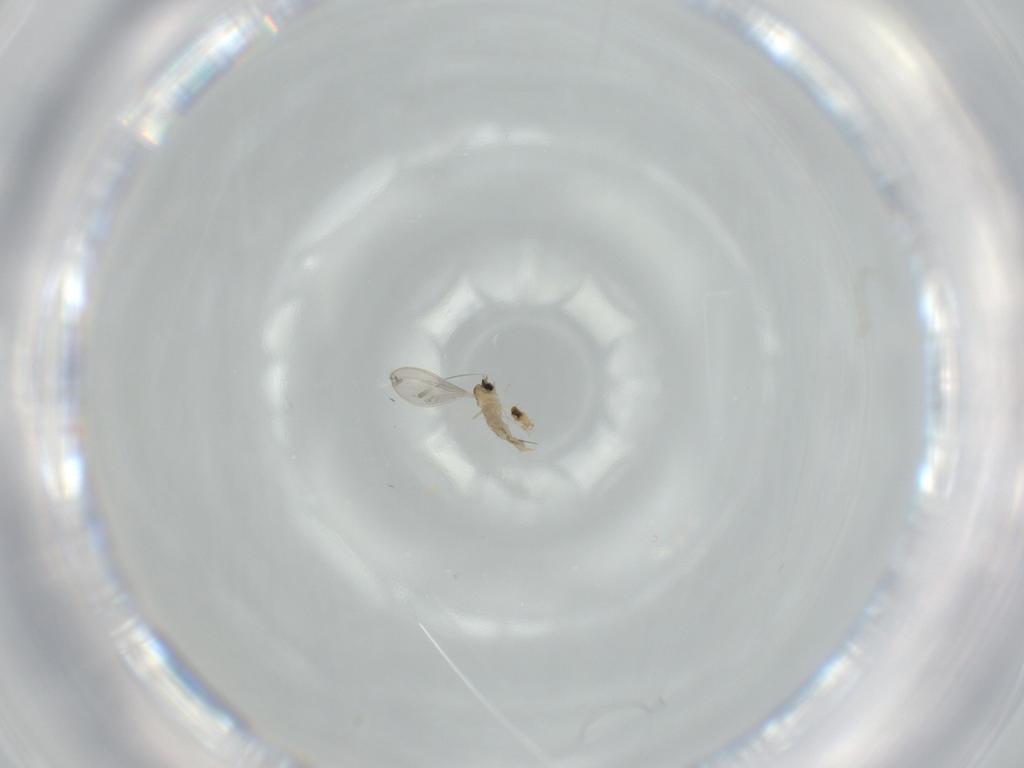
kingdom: Animalia
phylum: Arthropoda
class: Insecta
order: Diptera
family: Cecidomyiidae
